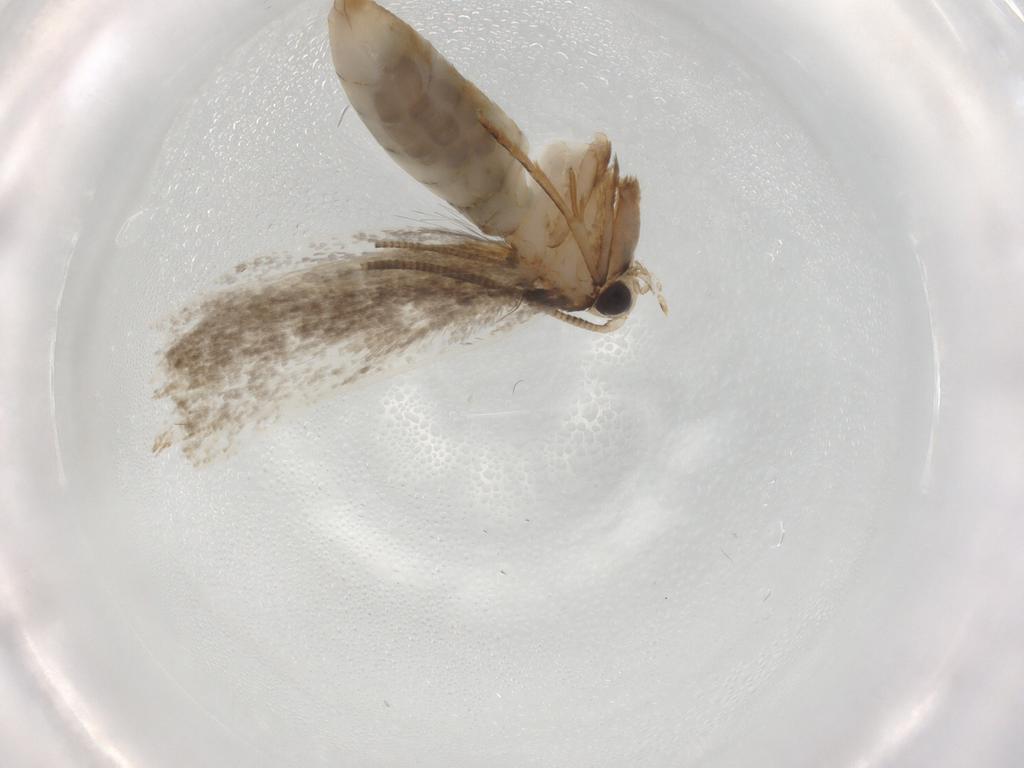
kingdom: Animalia
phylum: Arthropoda
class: Insecta
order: Lepidoptera
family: Tineidae
